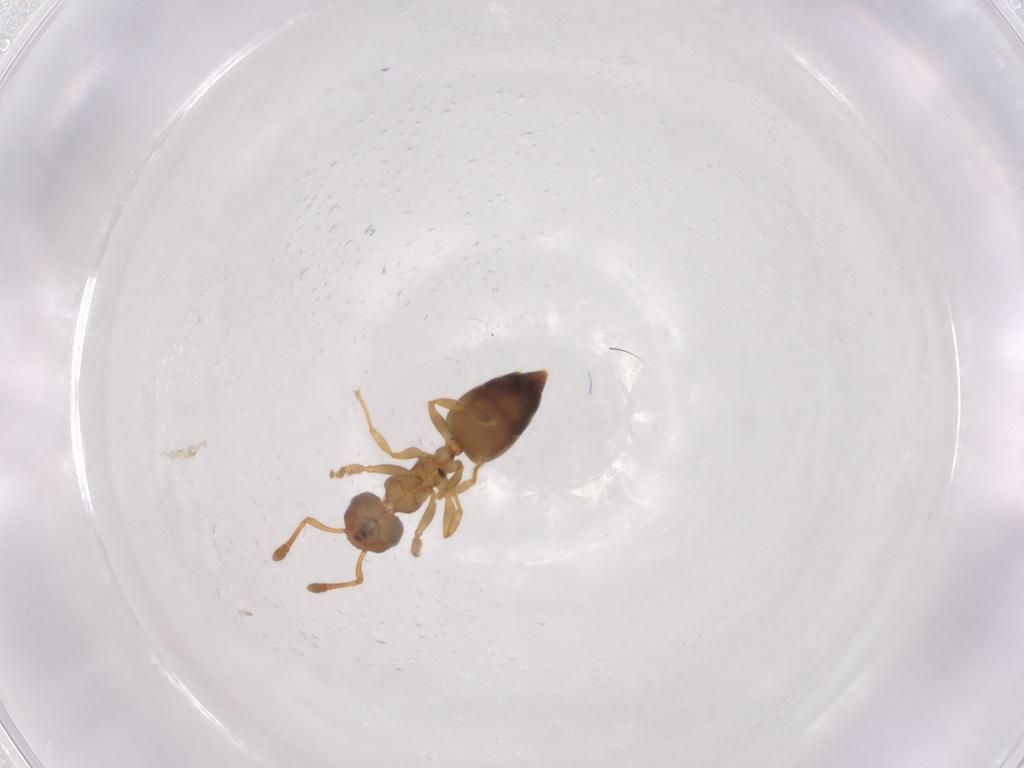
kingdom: Animalia
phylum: Arthropoda
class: Insecta
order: Hymenoptera
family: Formicidae
